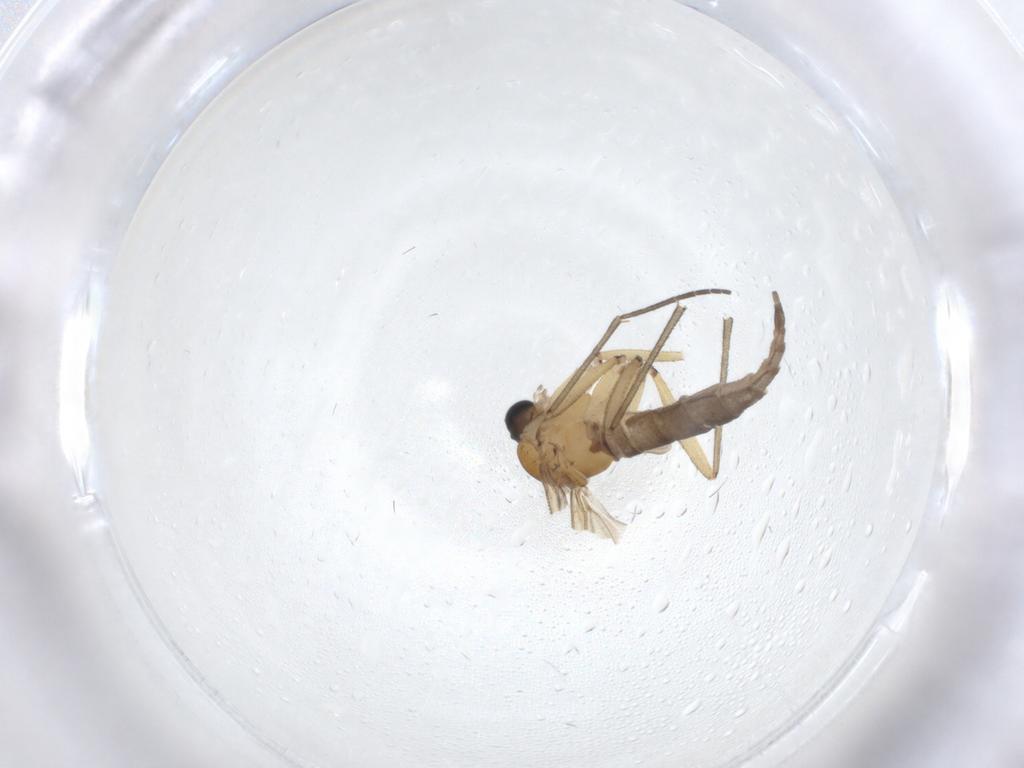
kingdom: Animalia
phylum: Arthropoda
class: Insecta
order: Diptera
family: Sciaridae
